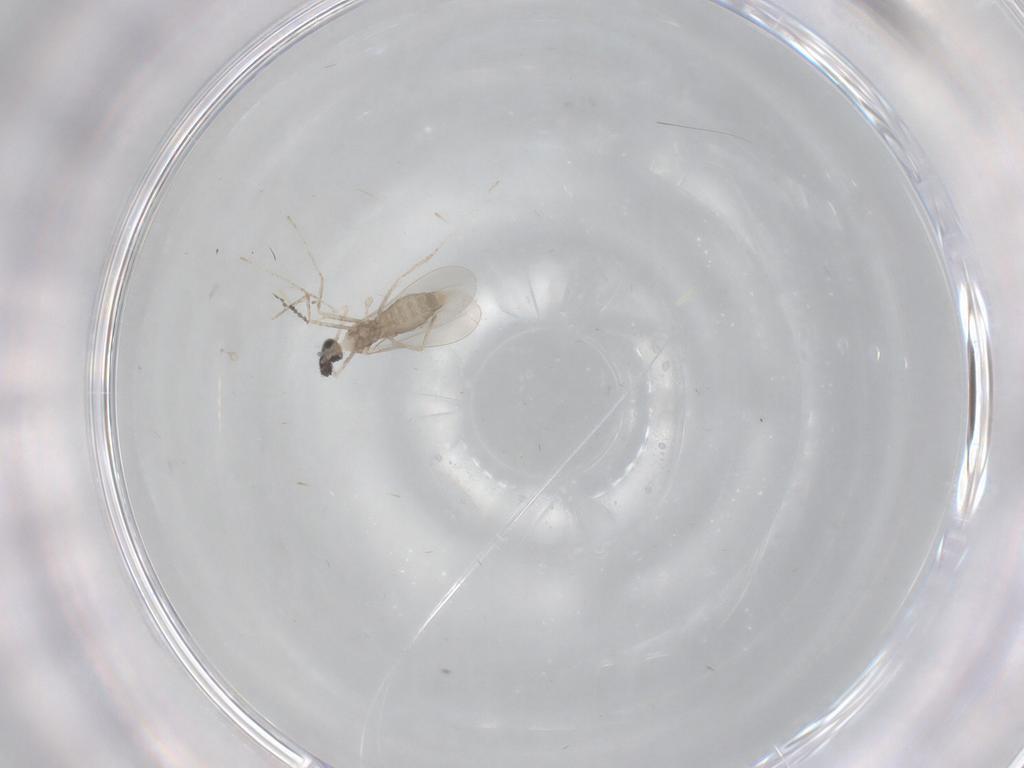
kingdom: Animalia
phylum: Arthropoda
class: Insecta
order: Diptera
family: Cecidomyiidae
